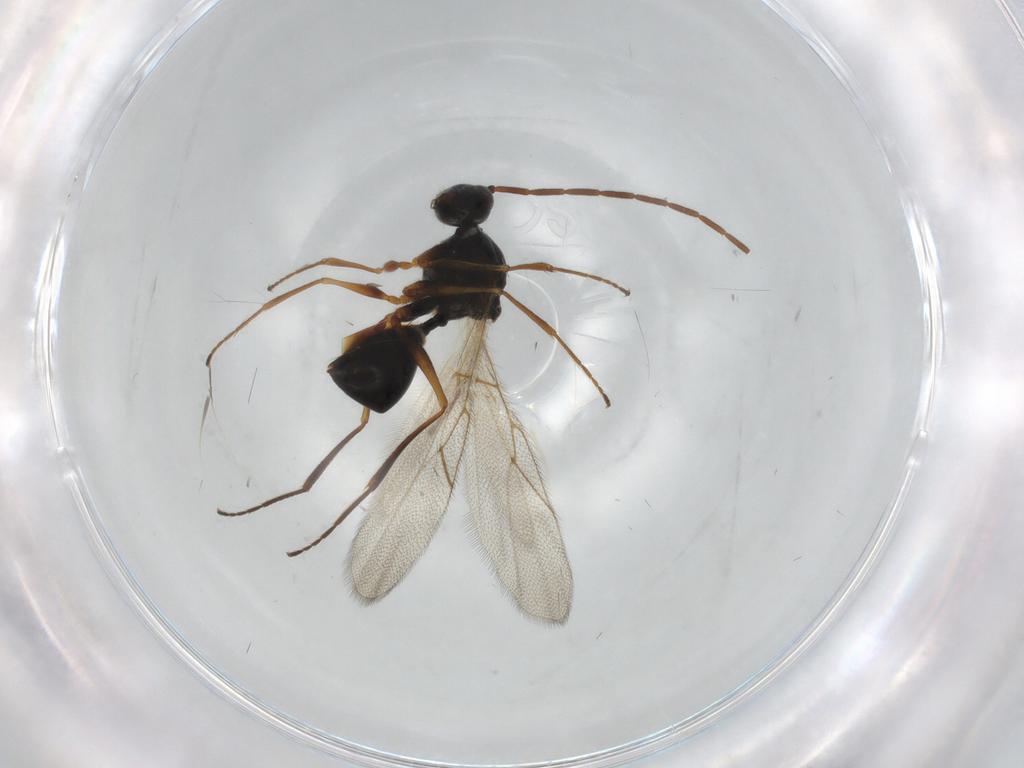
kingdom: Animalia
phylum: Arthropoda
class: Insecta
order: Hymenoptera
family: Figitidae
